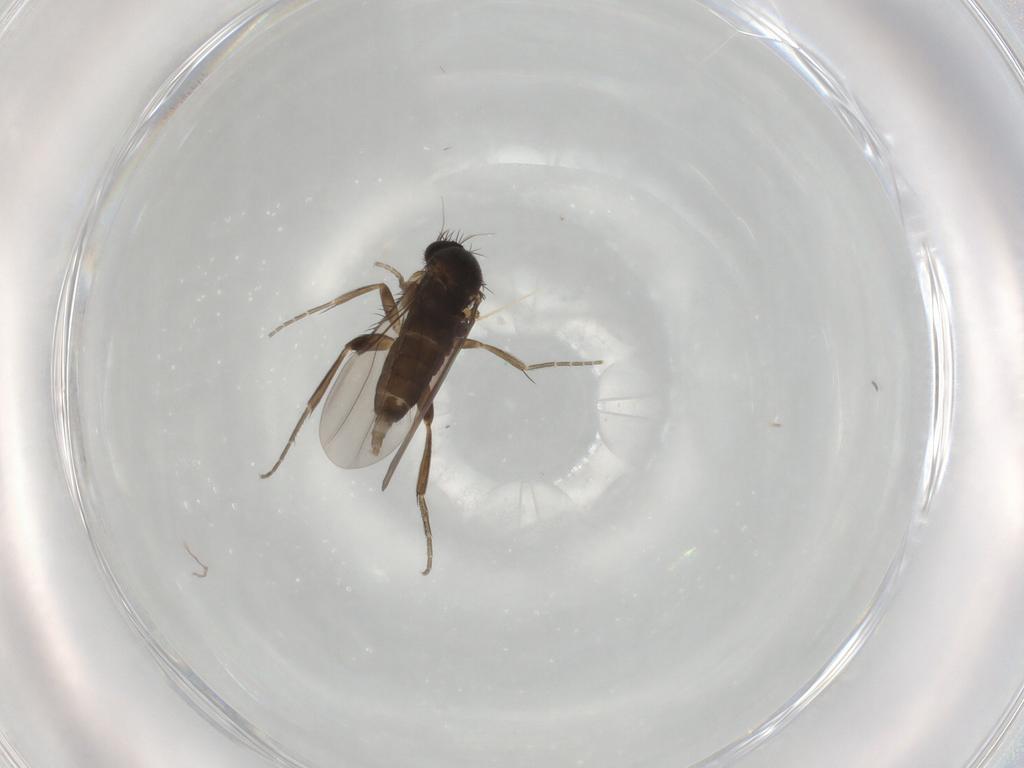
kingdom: Animalia
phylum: Arthropoda
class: Insecta
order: Diptera
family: Phoridae
